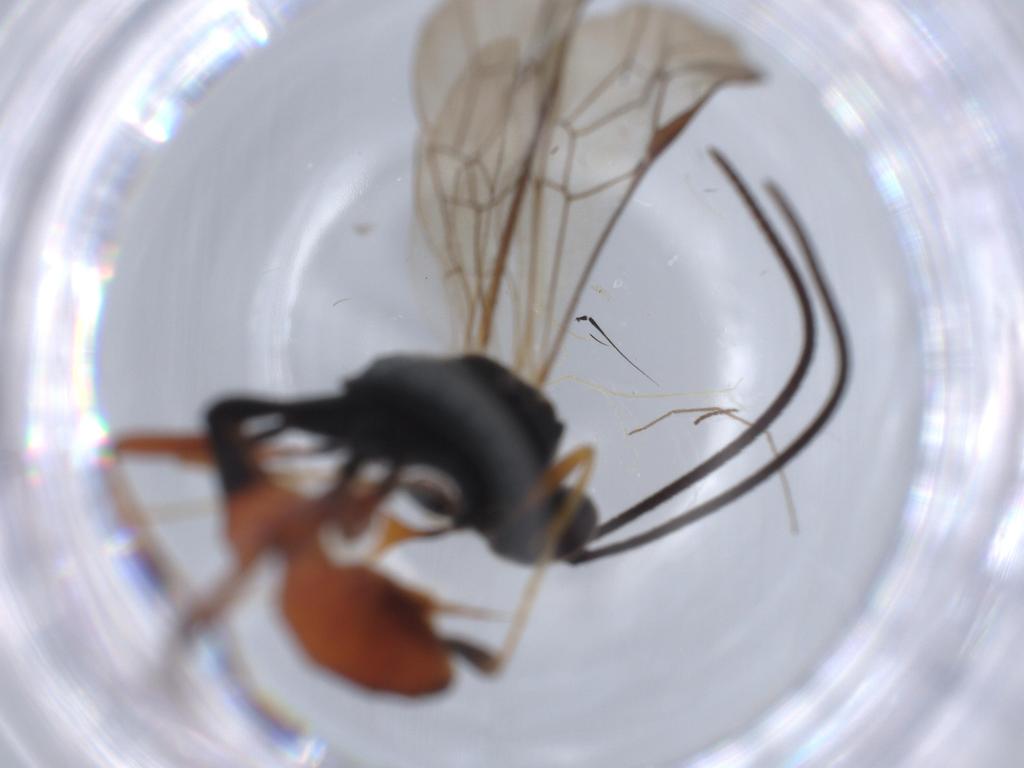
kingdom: Animalia
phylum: Arthropoda
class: Insecta
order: Hymenoptera
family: Ichneumonidae
